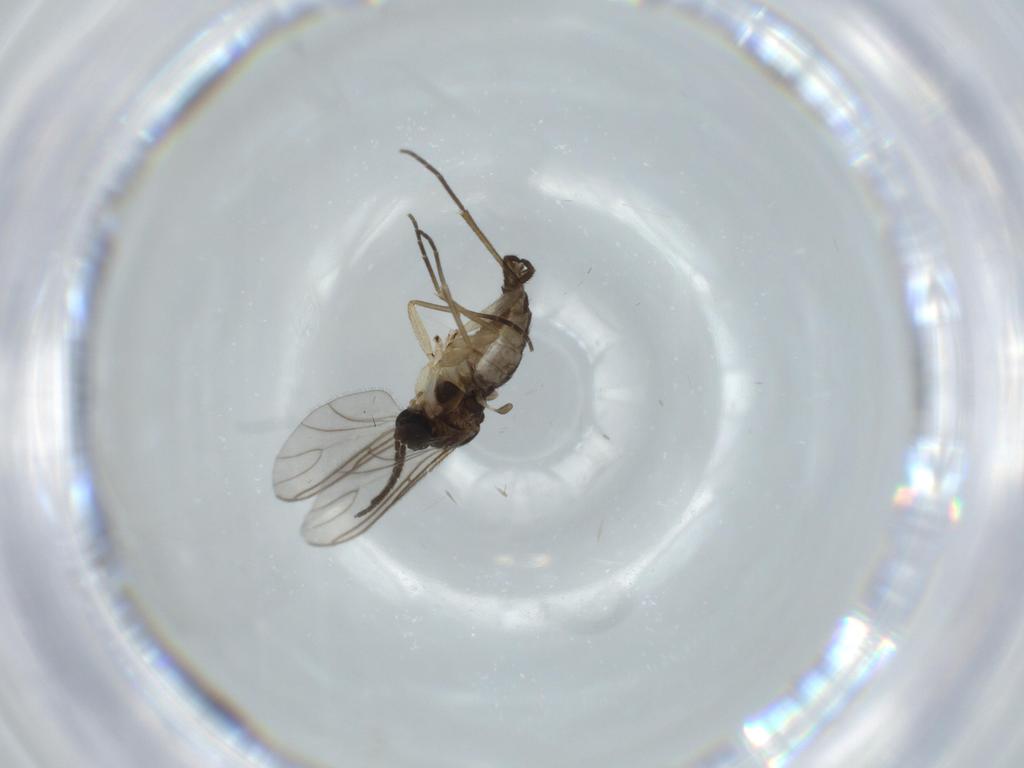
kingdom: Animalia
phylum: Arthropoda
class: Insecta
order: Diptera
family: Sciaridae
